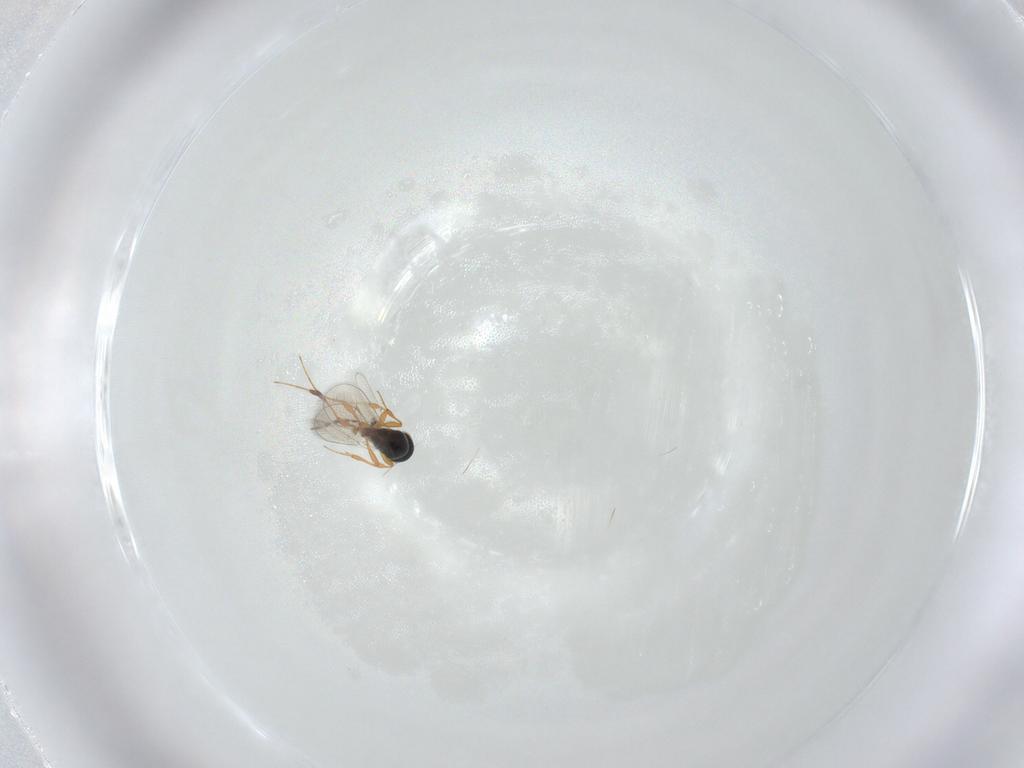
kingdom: Animalia
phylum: Arthropoda
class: Insecta
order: Hymenoptera
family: Platygastridae
